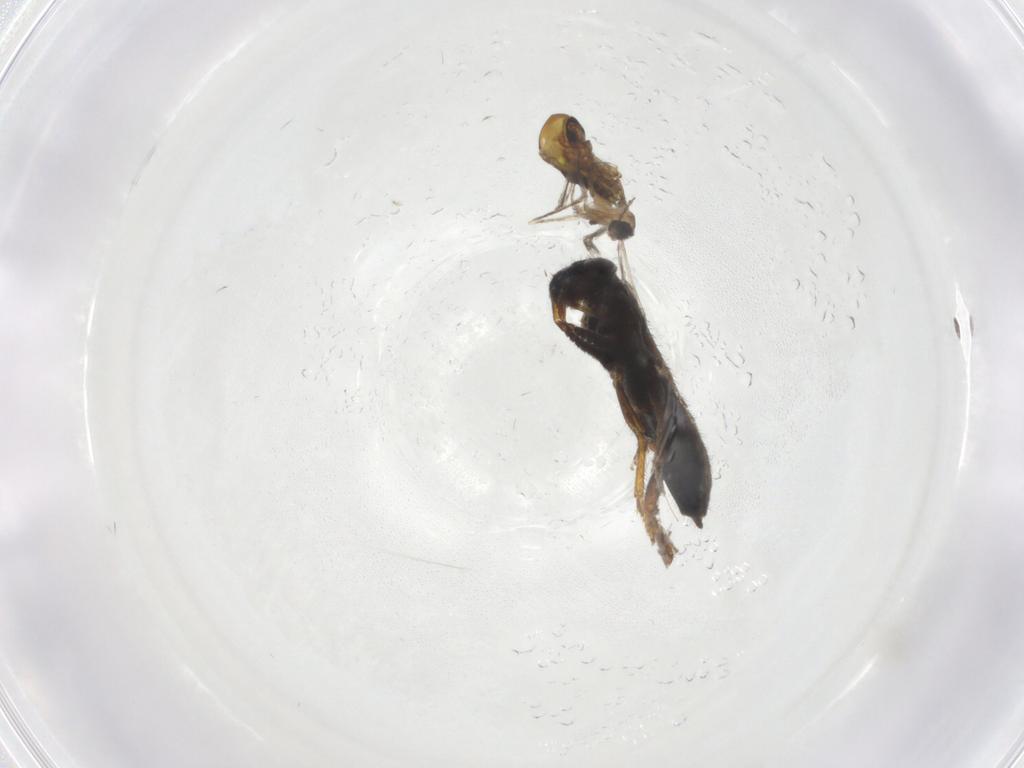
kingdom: Animalia
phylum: Arthropoda
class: Insecta
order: Diptera
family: Cecidomyiidae
